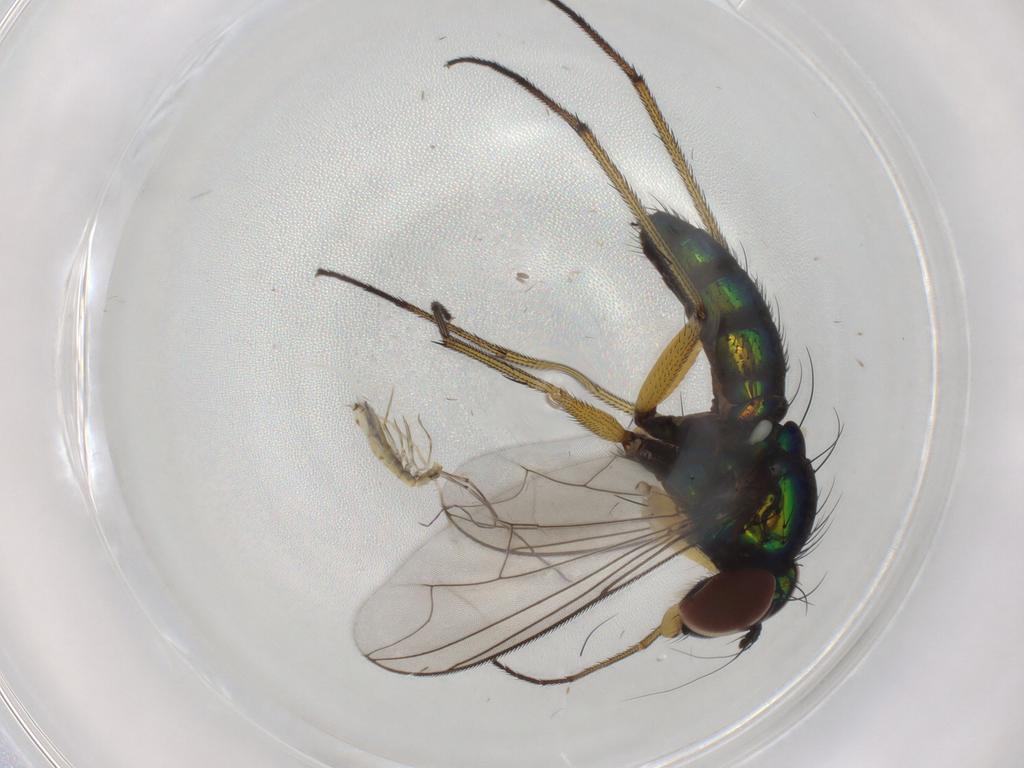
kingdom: Animalia
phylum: Arthropoda
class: Insecta
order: Diptera
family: Dolichopodidae
